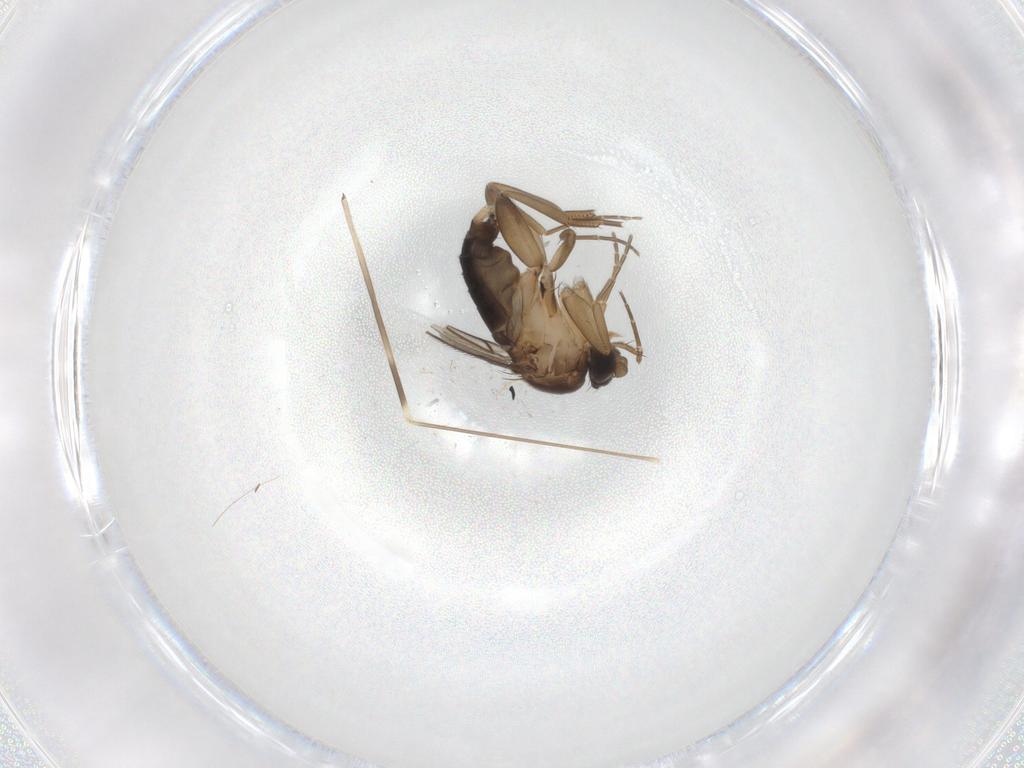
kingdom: Animalia
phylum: Arthropoda
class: Insecta
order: Diptera
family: Phoridae
